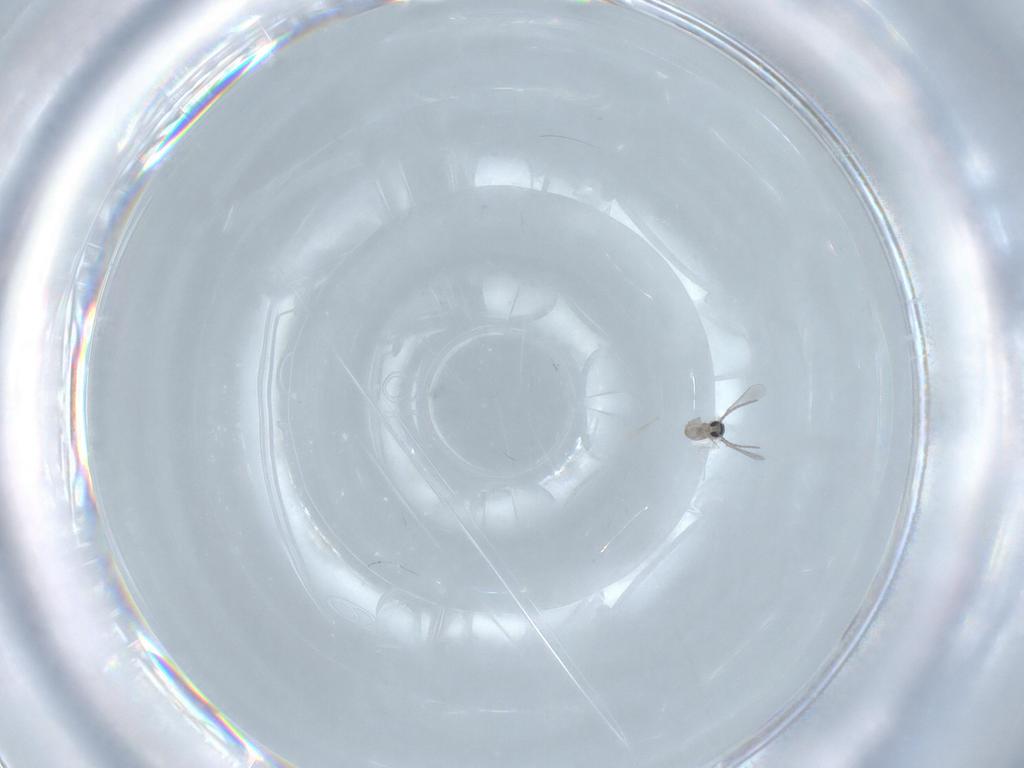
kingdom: Animalia
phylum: Arthropoda
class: Insecta
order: Diptera
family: Cecidomyiidae
